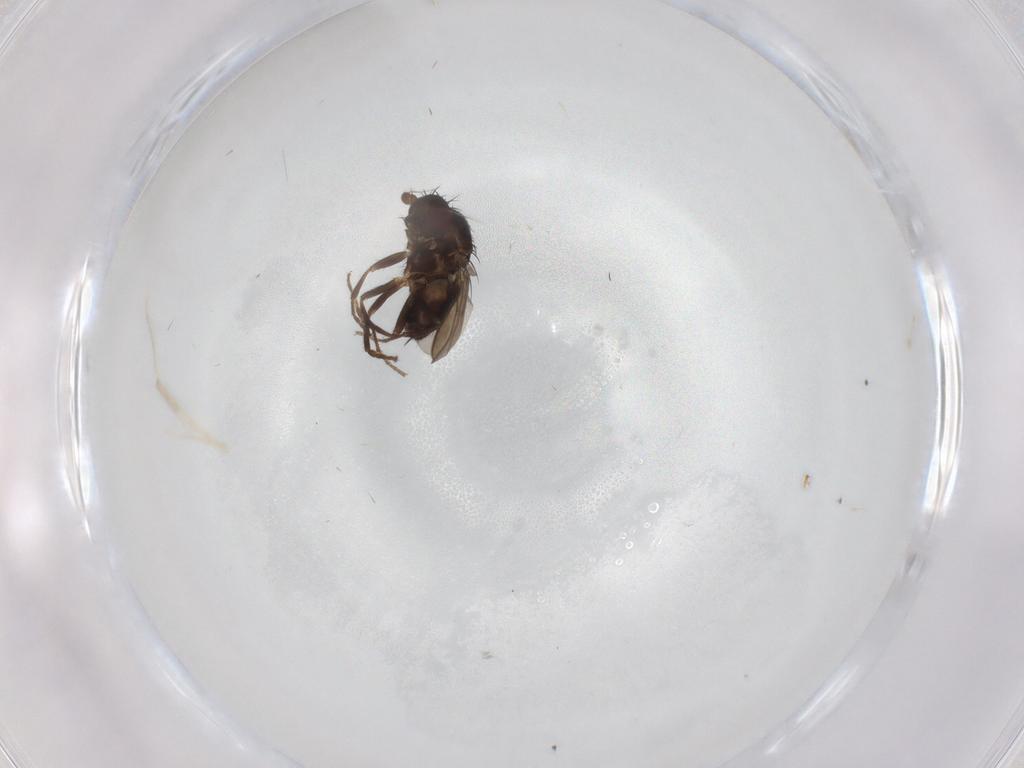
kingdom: Animalia
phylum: Arthropoda
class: Insecta
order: Diptera
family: Sphaeroceridae
